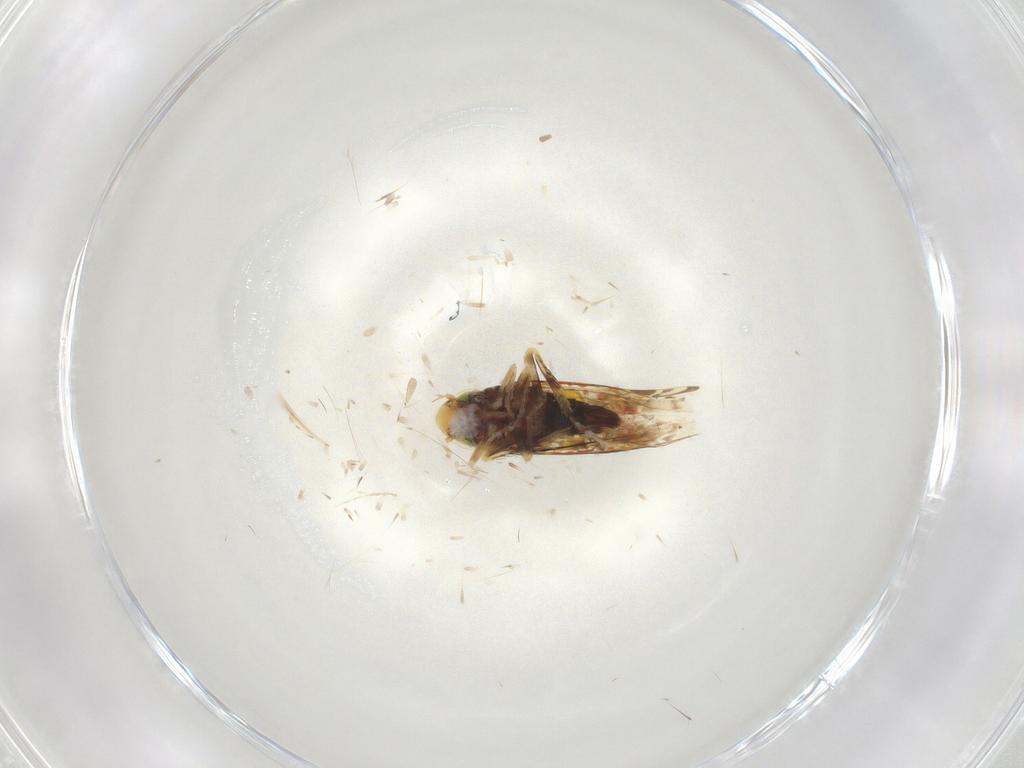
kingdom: Animalia
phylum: Arthropoda
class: Insecta
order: Hemiptera
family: Cicadellidae
